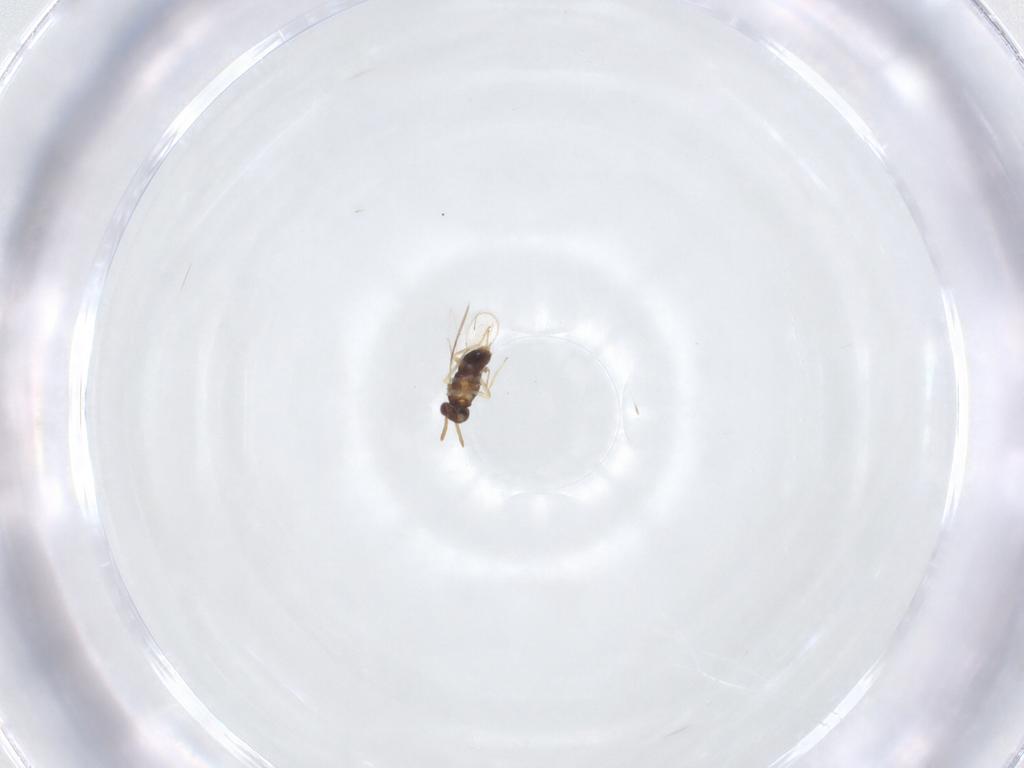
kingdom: Animalia
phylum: Arthropoda
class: Insecta
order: Hymenoptera
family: Aphelinidae
